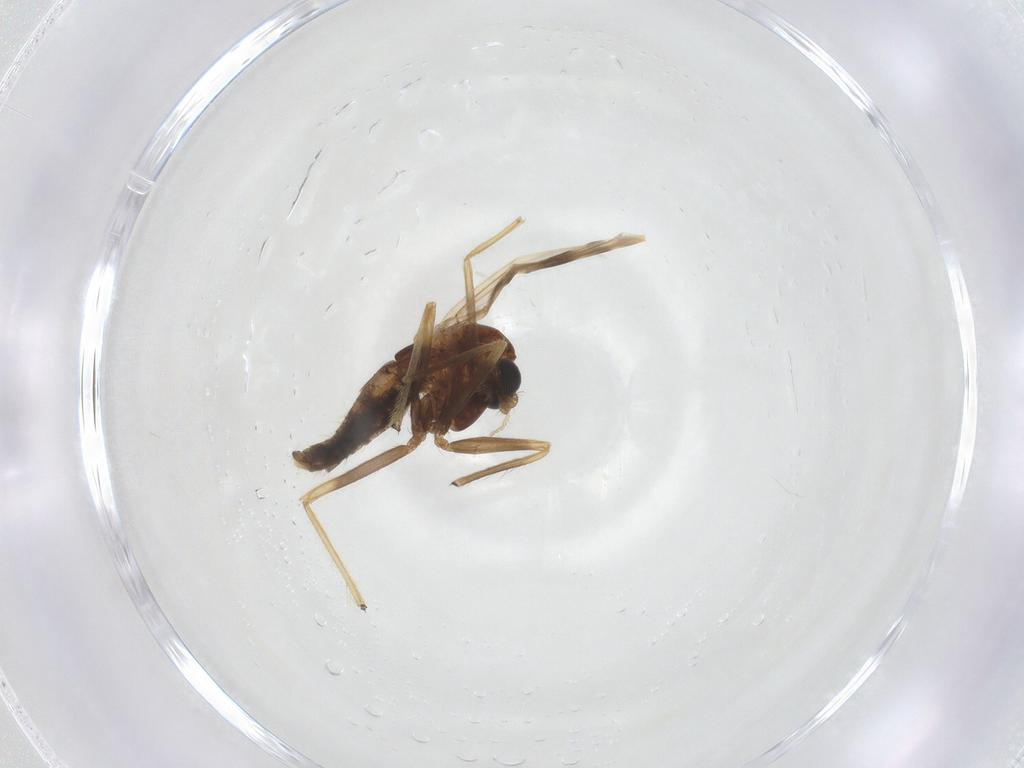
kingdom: Animalia
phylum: Arthropoda
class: Insecta
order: Diptera
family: Chironomidae
